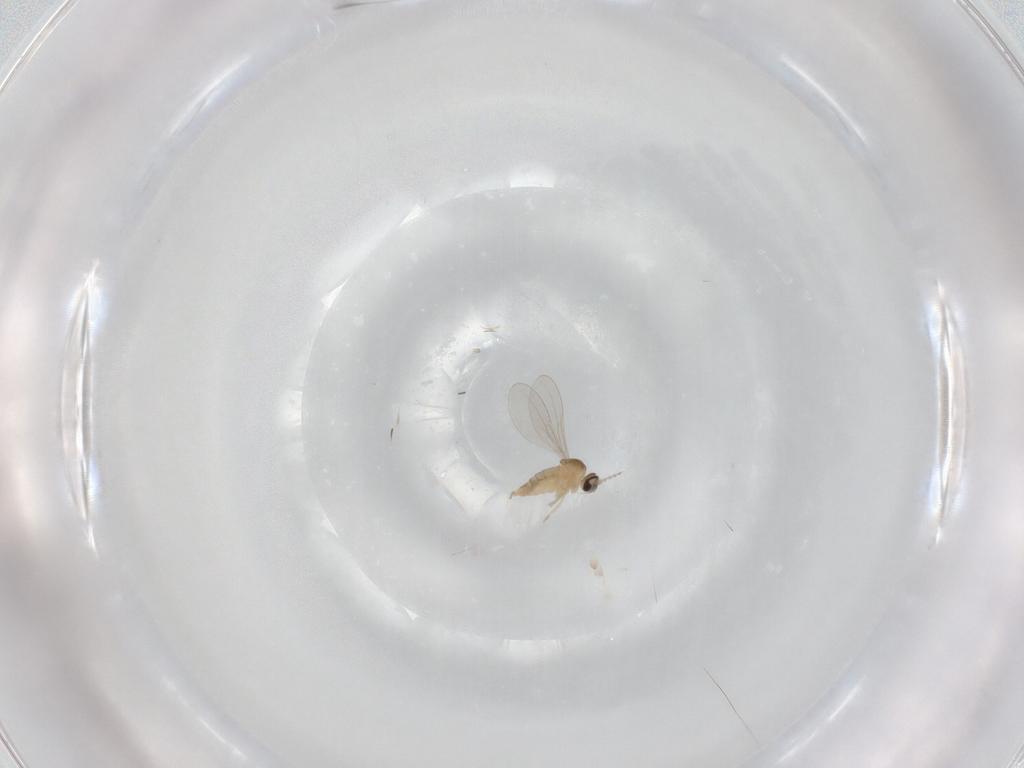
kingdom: Animalia
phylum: Arthropoda
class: Insecta
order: Diptera
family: Cecidomyiidae
